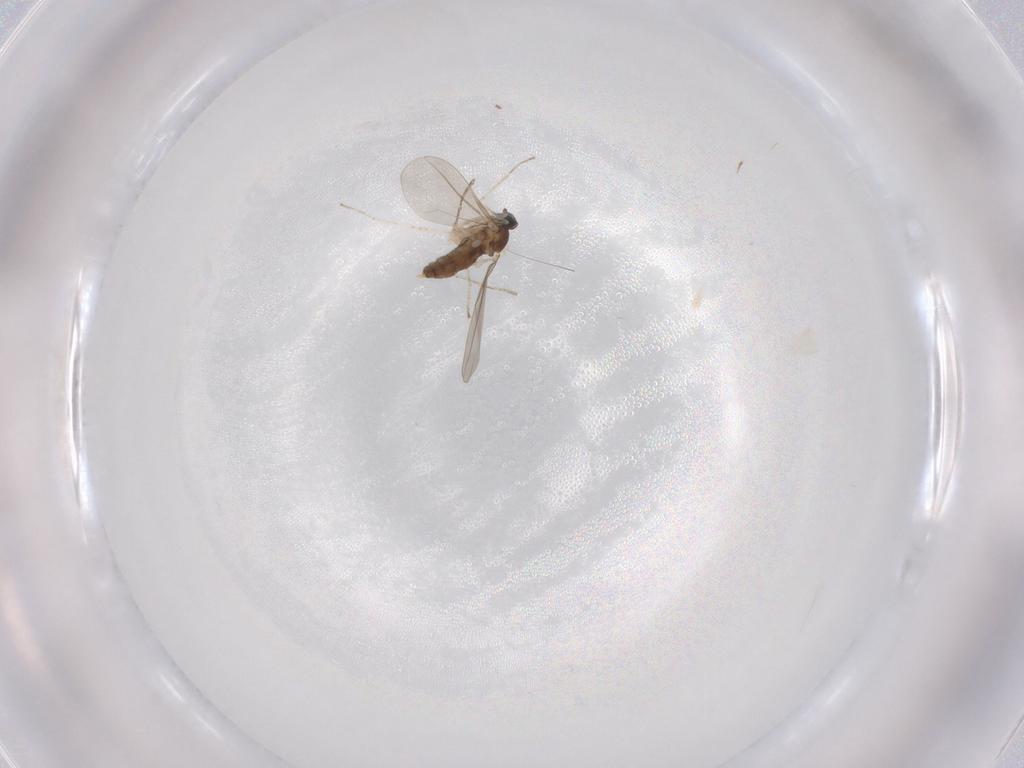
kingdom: Animalia
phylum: Arthropoda
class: Insecta
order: Diptera
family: Cecidomyiidae
